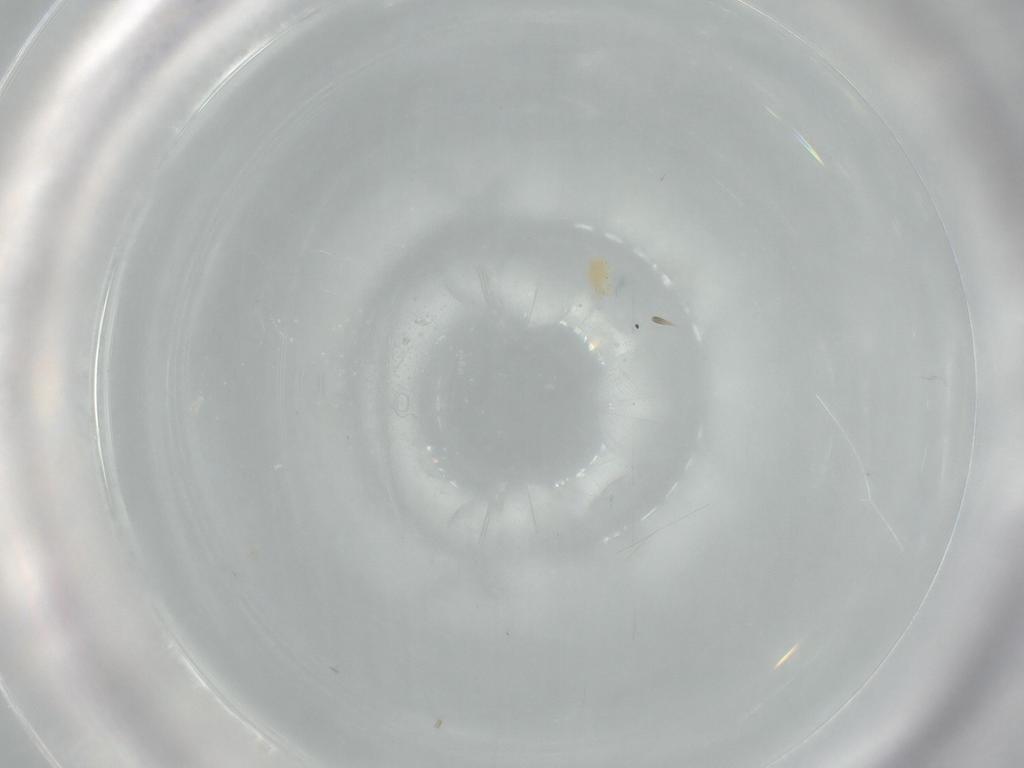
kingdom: Animalia
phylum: Arthropoda
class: Arachnida
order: Trombidiformes
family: Tetranychidae
